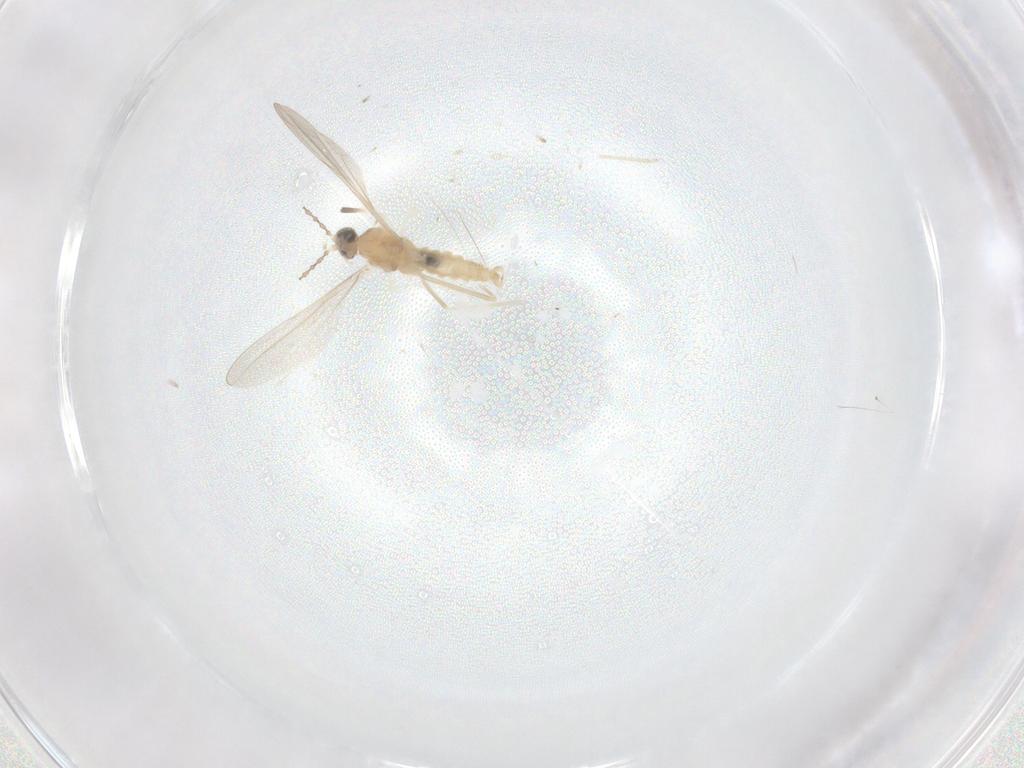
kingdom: Animalia
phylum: Arthropoda
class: Insecta
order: Diptera
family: Cecidomyiidae
